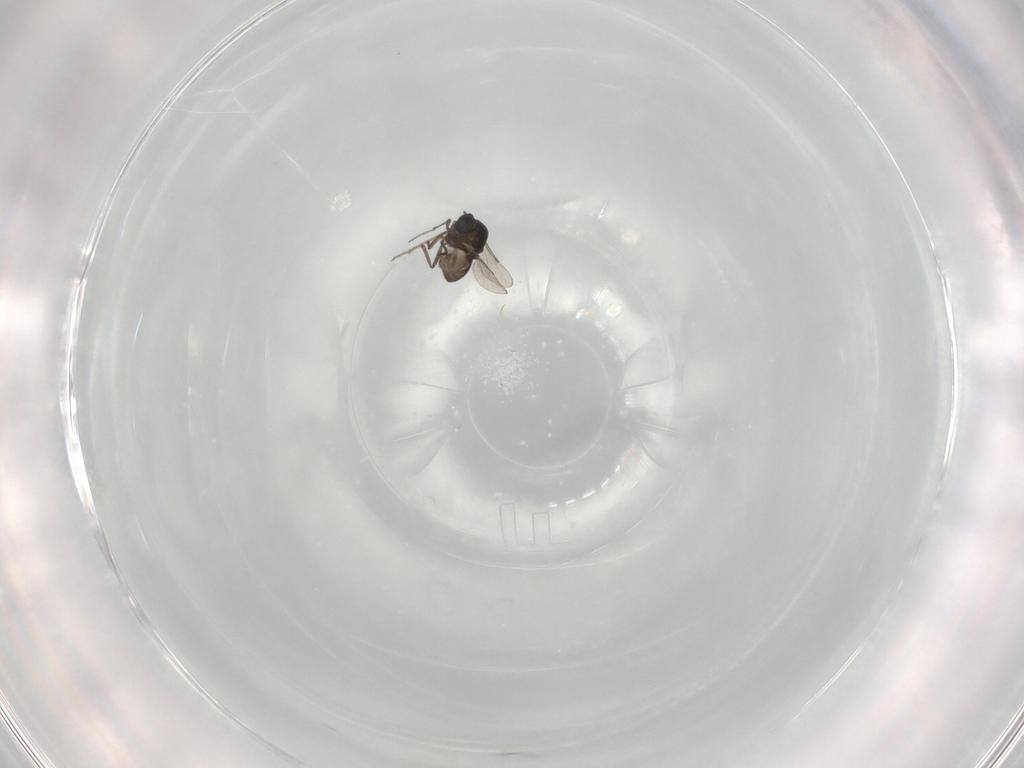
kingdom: Animalia
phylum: Arthropoda
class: Insecta
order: Diptera
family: Ceratopogonidae
